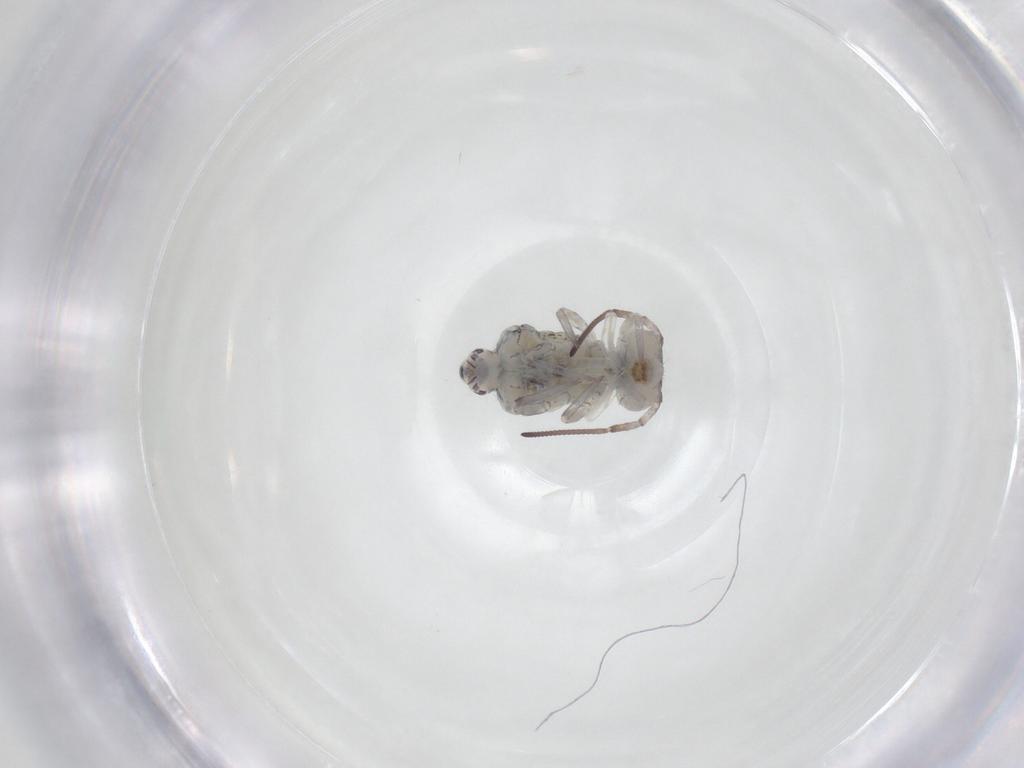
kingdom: Animalia
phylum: Arthropoda
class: Collembola
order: Symphypleona
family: Bourletiellidae
